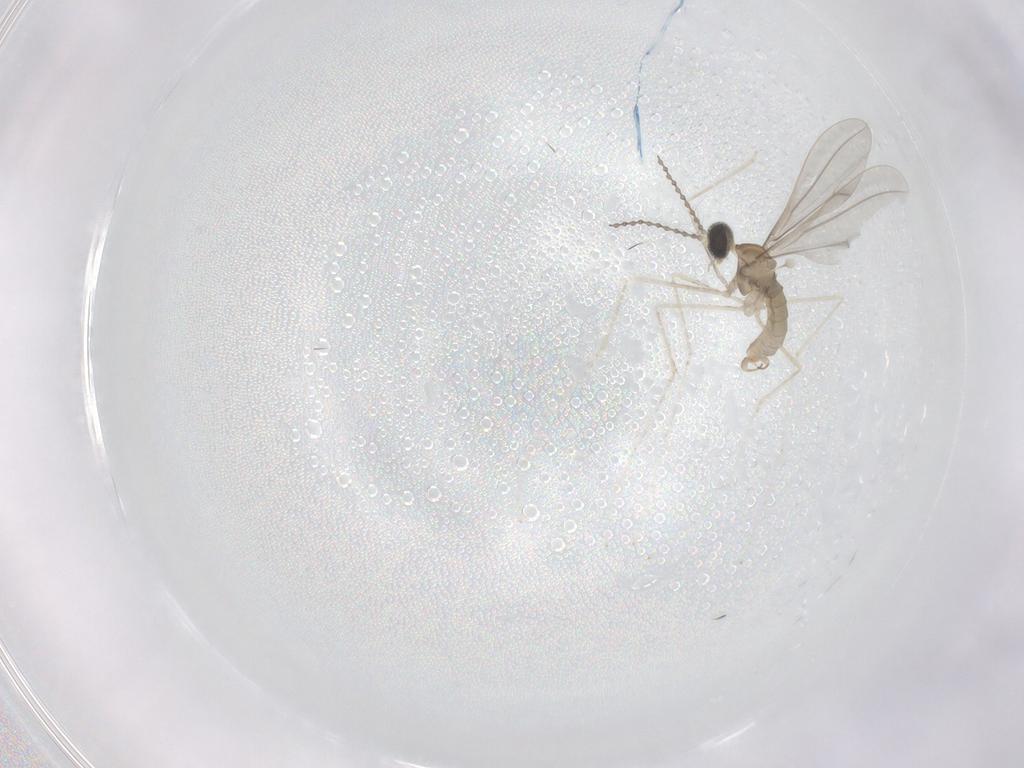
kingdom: Animalia
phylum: Arthropoda
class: Insecta
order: Diptera
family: Cecidomyiidae
